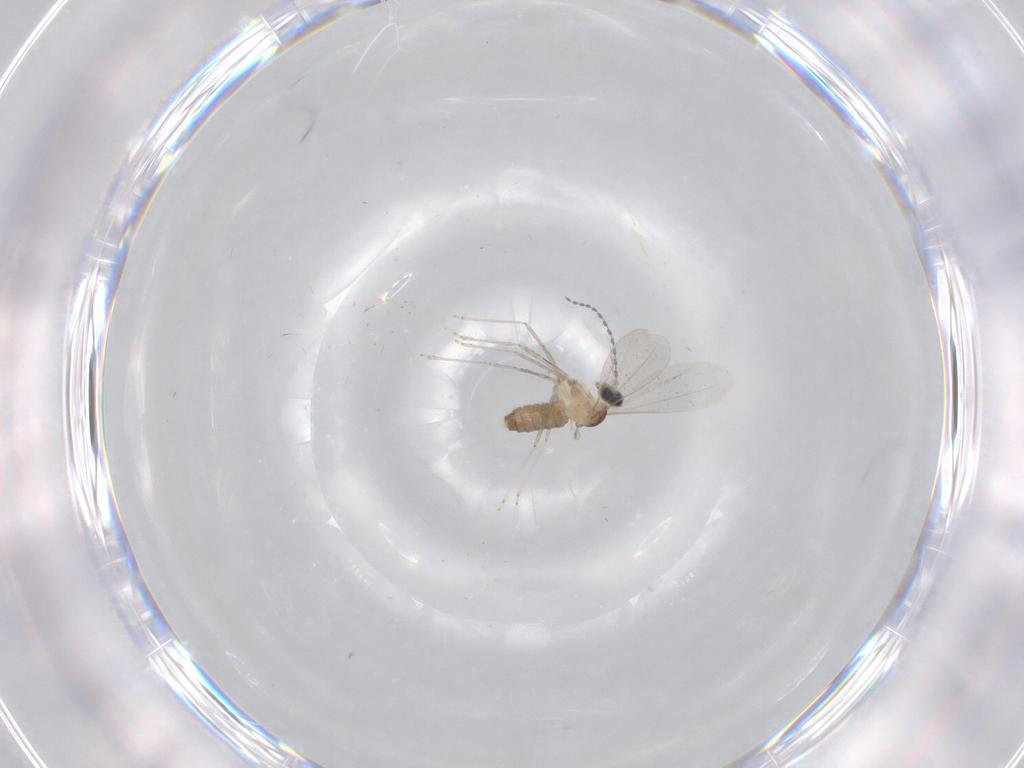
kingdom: Animalia
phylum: Arthropoda
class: Insecta
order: Diptera
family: Cecidomyiidae
